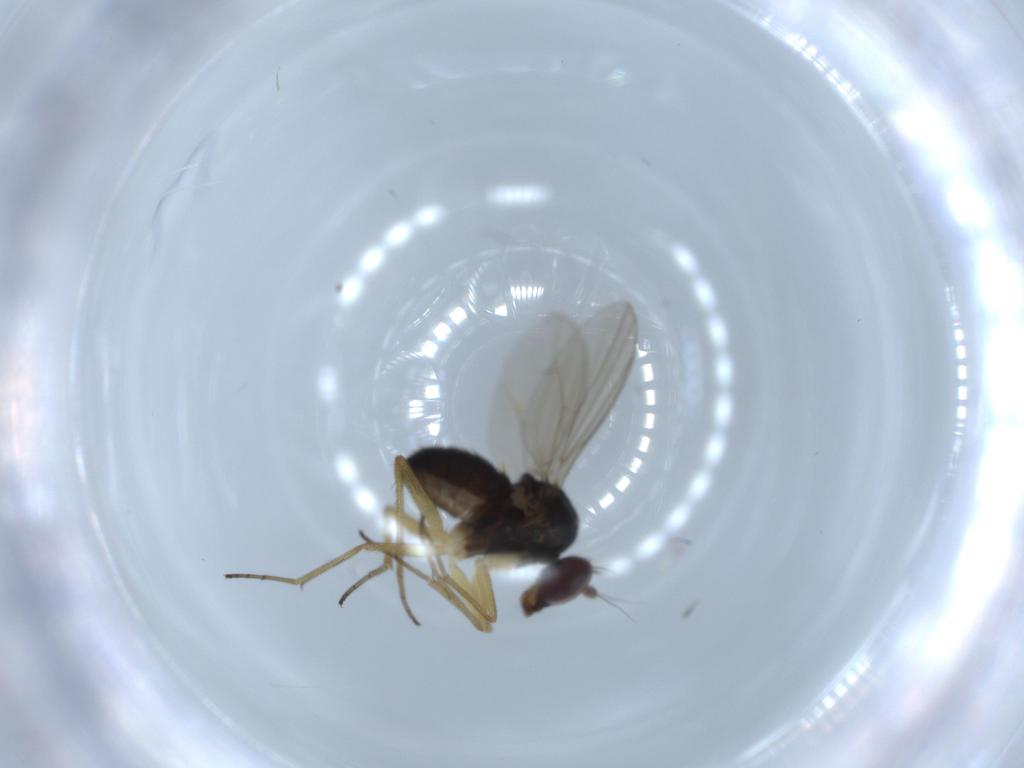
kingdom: Animalia
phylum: Arthropoda
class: Insecta
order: Diptera
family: Dolichopodidae
